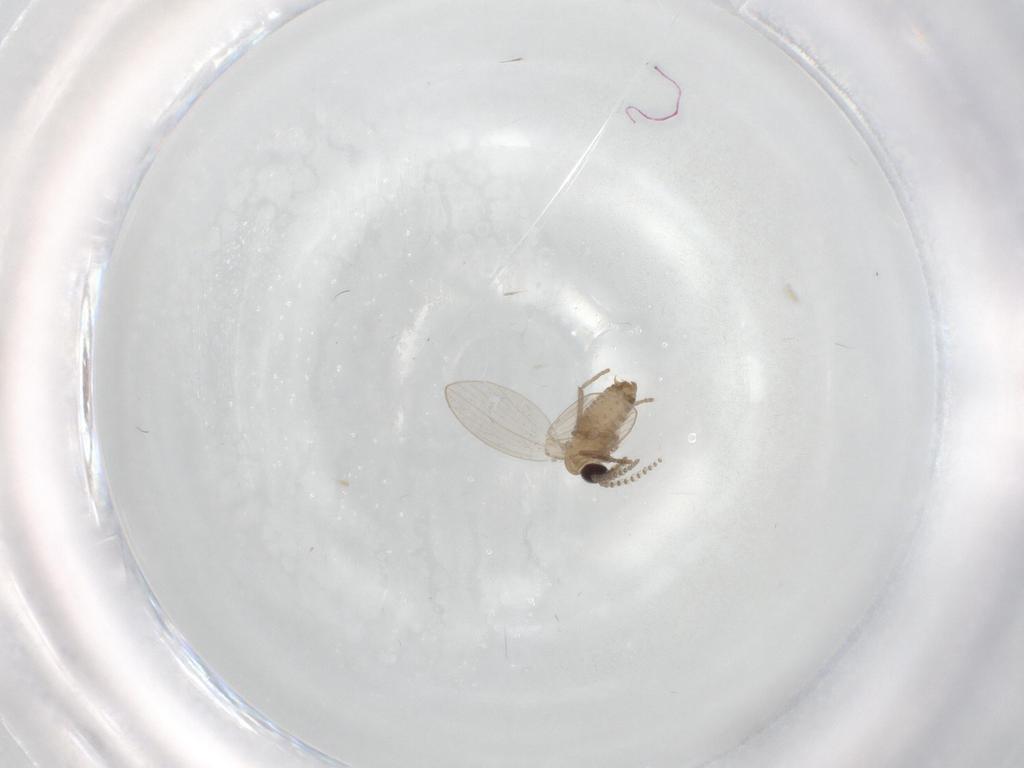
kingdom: Animalia
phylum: Arthropoda
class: Insecta
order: Diptera
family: Psychodidae
